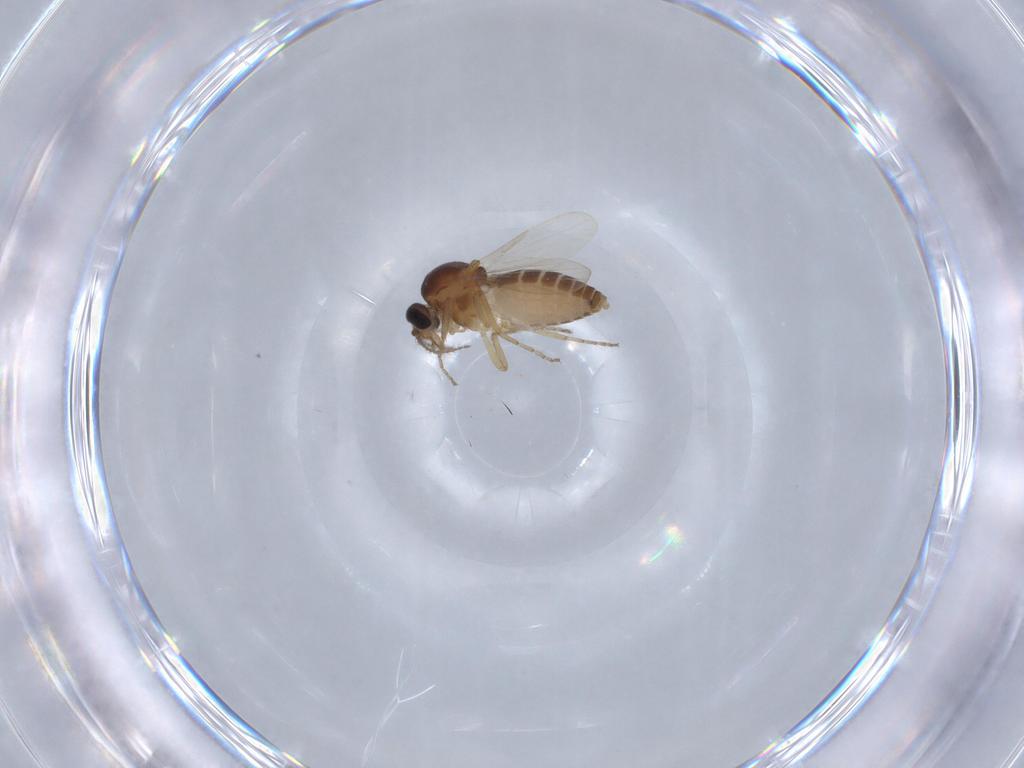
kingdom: Animalia
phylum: Arthropoda
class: Insecta
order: Diptera
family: Ceratopogonidae
